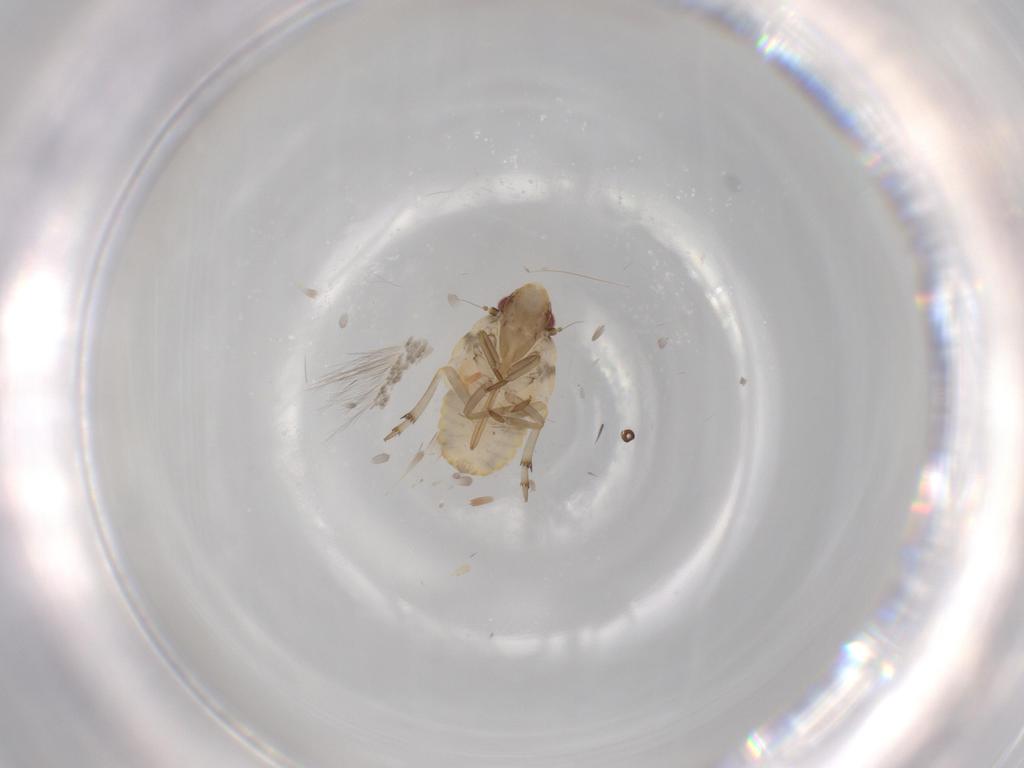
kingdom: Animalia
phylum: Arthropoda
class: Insecta
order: Hemiptera
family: Flatidae
